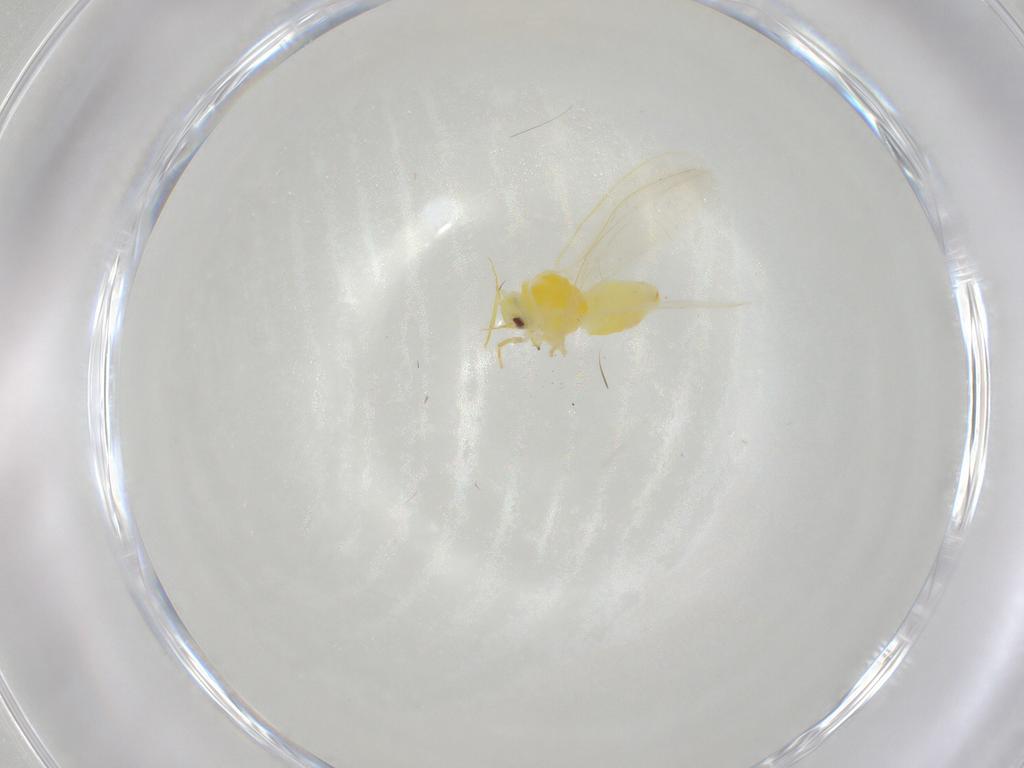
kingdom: Animalia
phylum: Arthropoda
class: Insecta
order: Hemiptera
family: Aleyrodidae
